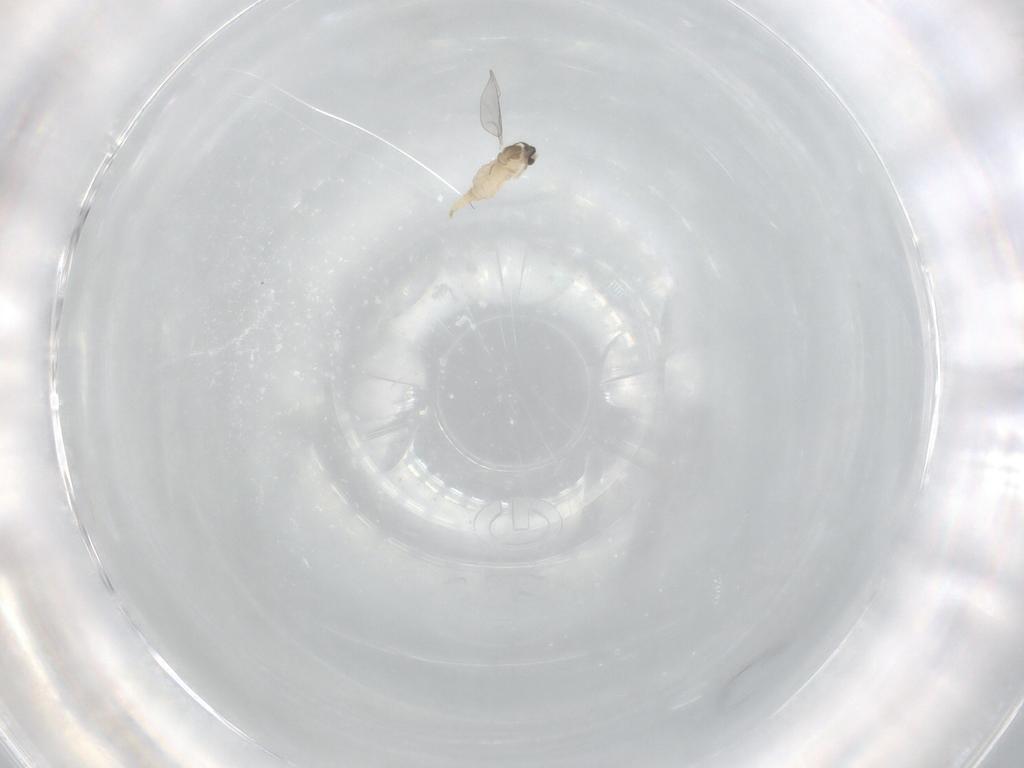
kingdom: Animalia
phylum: Arthropoda
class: Insecta
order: Diptera
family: Cecidomyiidae
